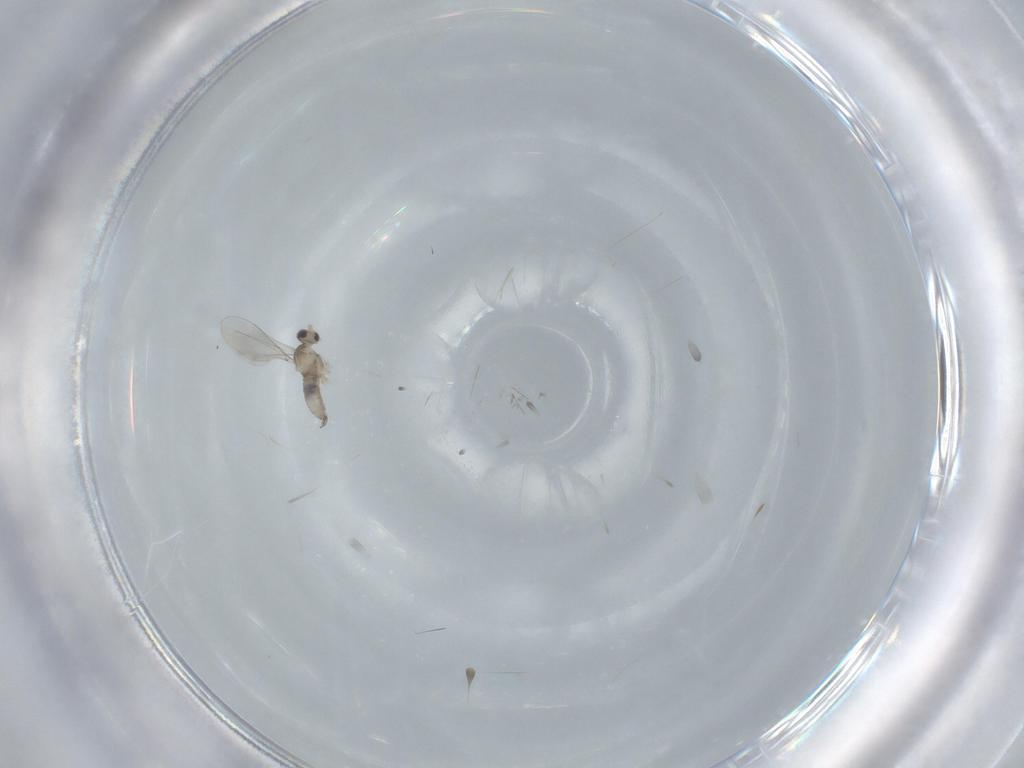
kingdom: Animalia
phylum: Arthropoda
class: Insecta
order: Diptera
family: Cecidomyiidae
